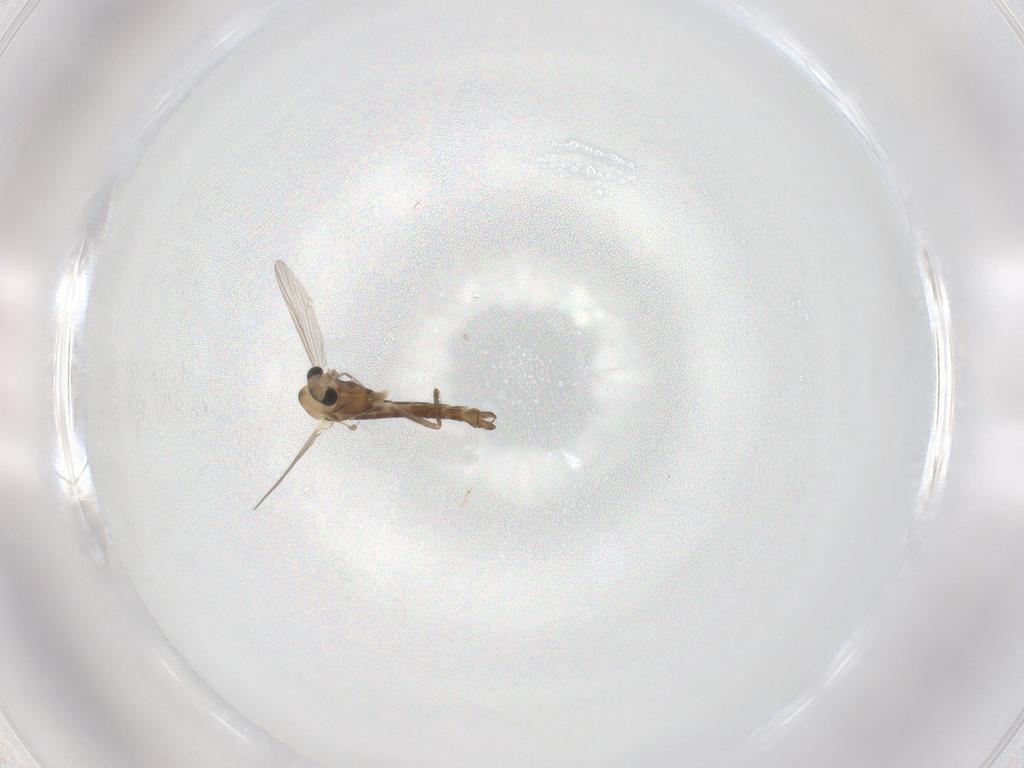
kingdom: Animalia
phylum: Arthropoda
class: Insecta
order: Diptera
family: Chironomidae
